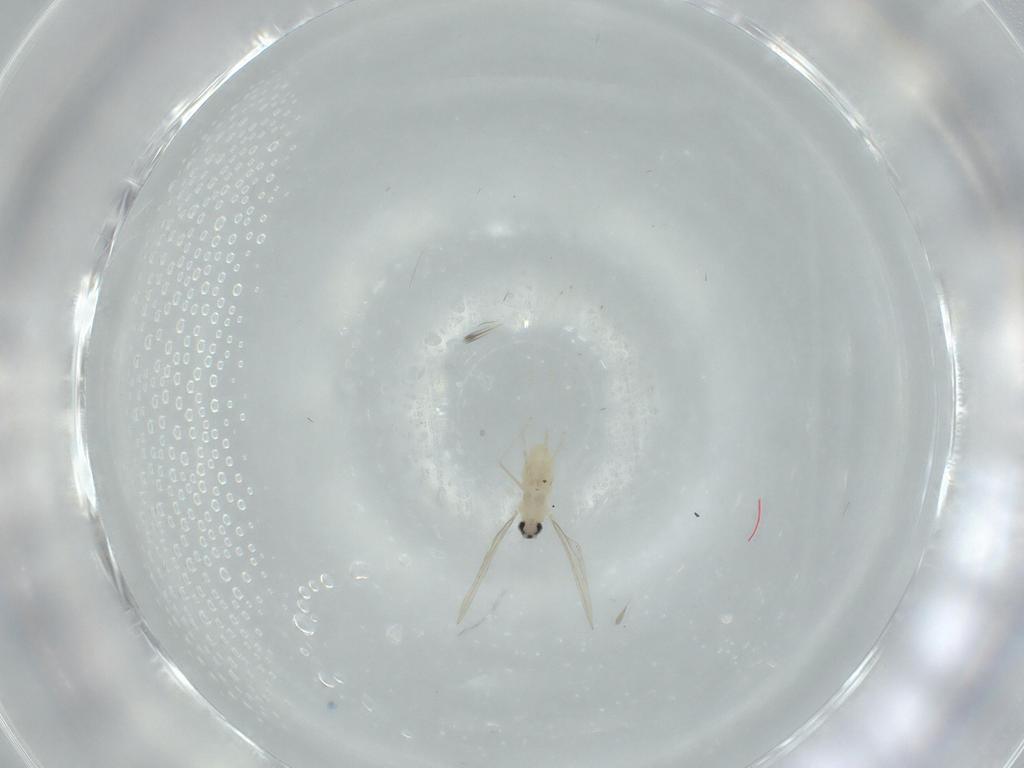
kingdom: Animalia
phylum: Arthropoda
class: Insecta
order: Diptera
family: Cecidomyiidae
